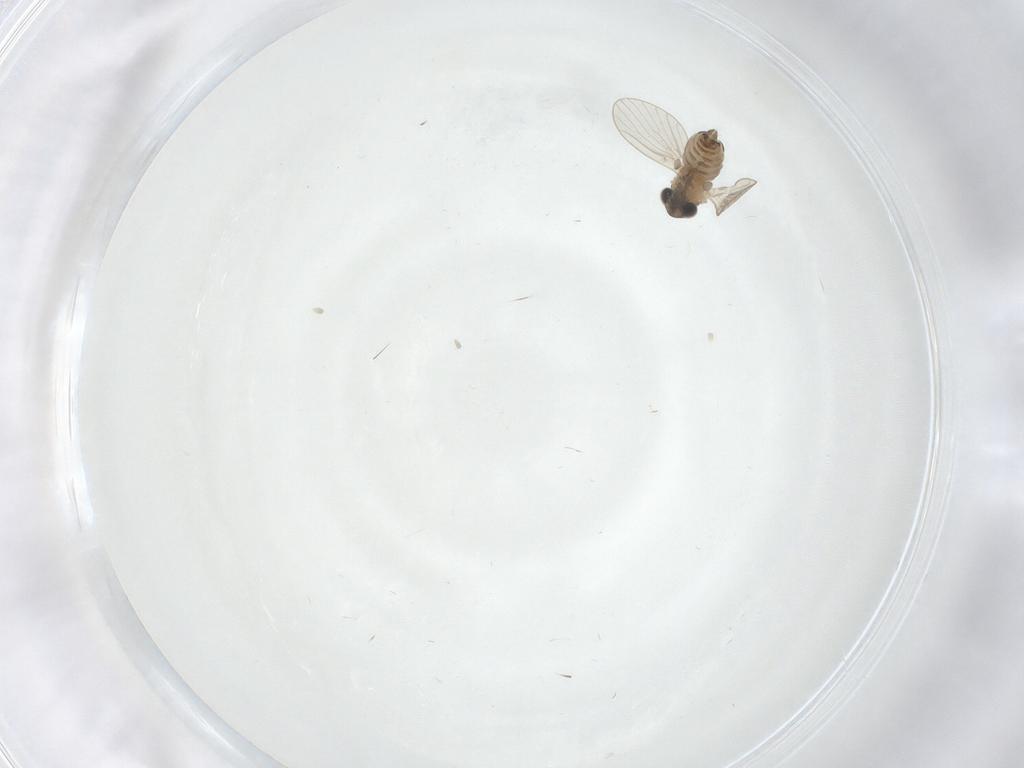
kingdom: Animalia
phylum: Arthropoda
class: Insecta
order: Diptera
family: Psychodidae
